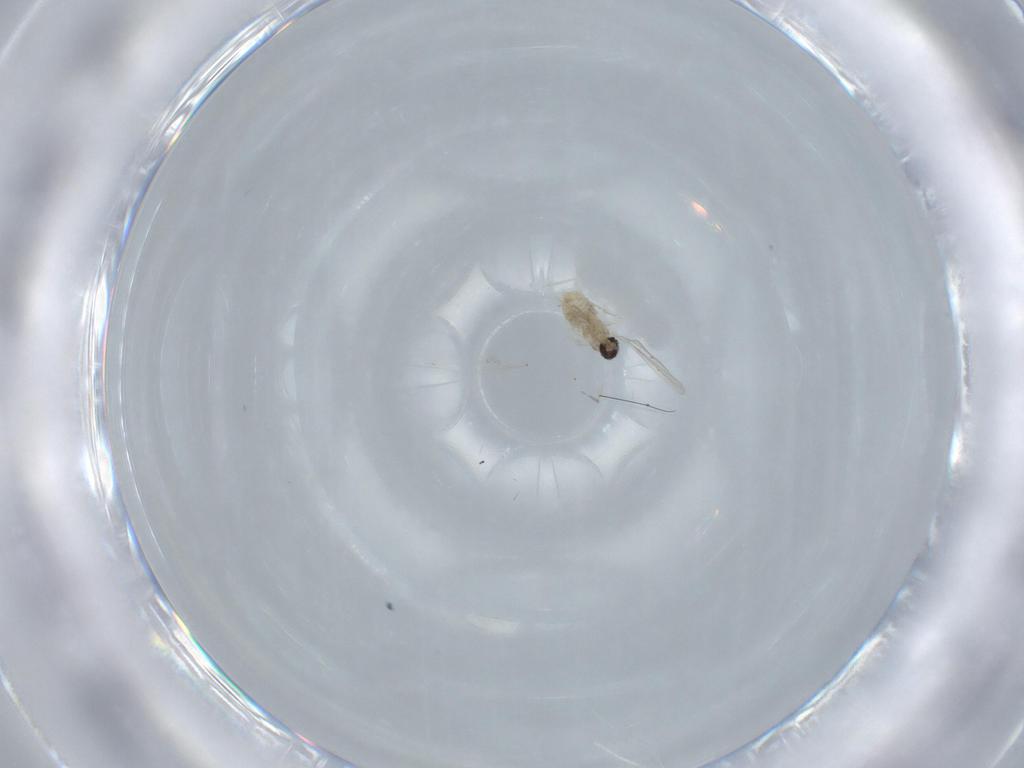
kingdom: Animalia
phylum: Arthropoda
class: Insecta
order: Diptera
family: Cecidomyiidae
